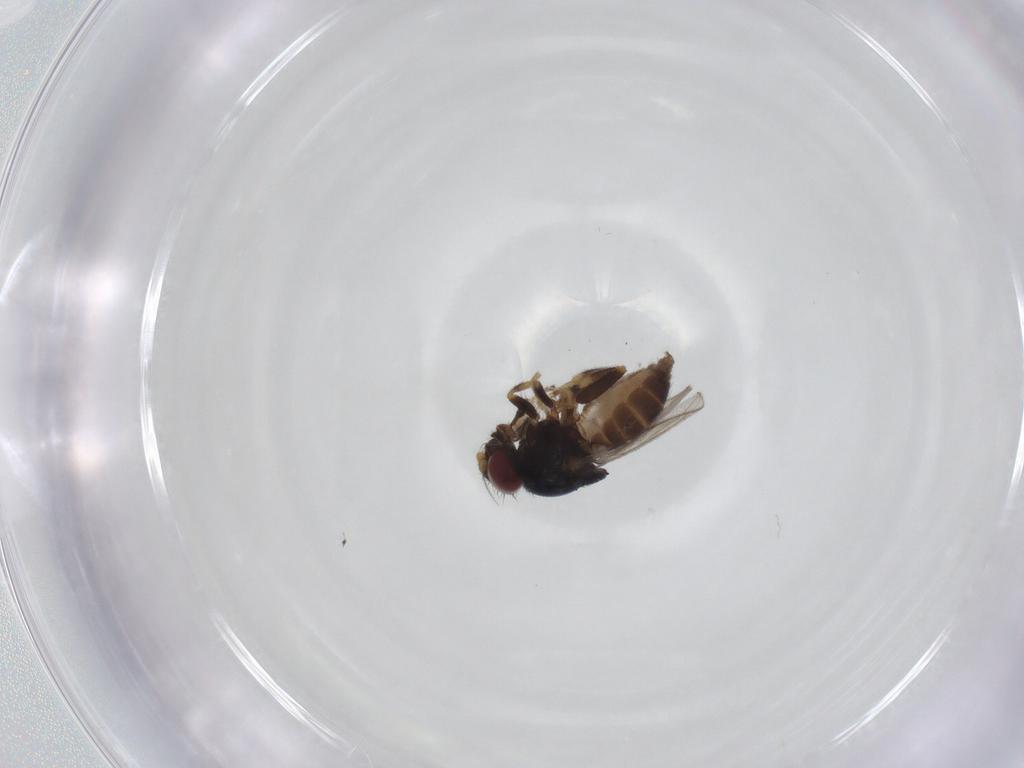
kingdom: Animalia
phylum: Arthropoda
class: Insecta
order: Diptera
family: Chloropidae
